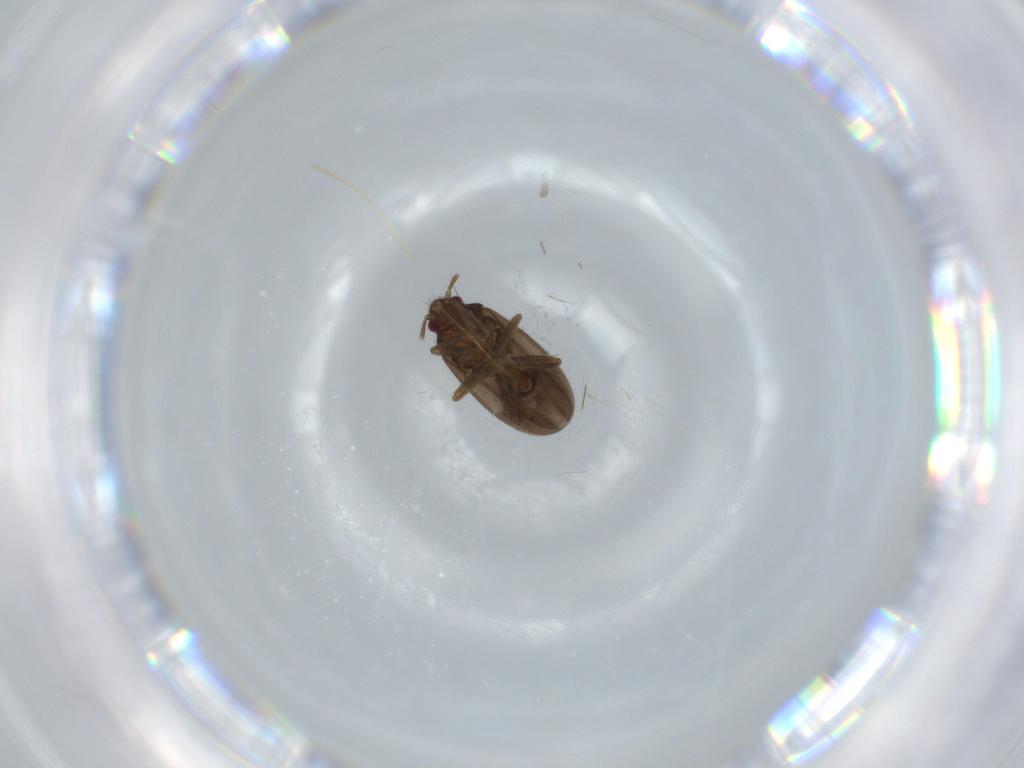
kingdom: Animalia
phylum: Arthropoda
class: Insecta
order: Hemiptera
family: Ceratocombidae
